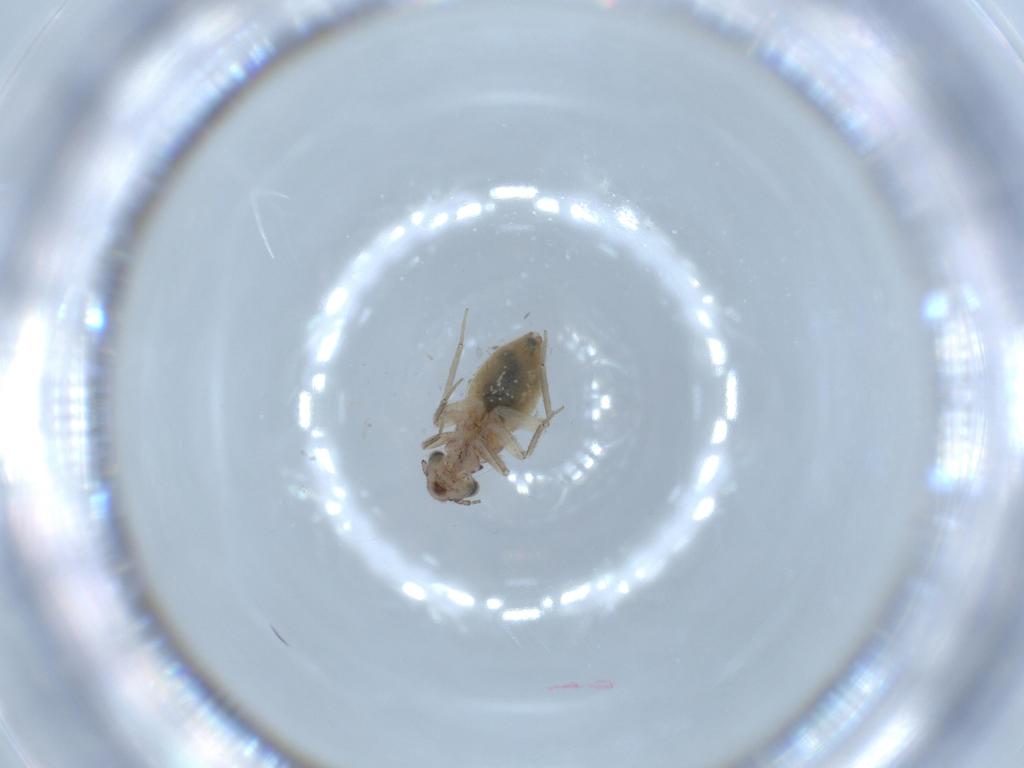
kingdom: Animalia
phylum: Arthropoda
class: Insecta
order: Psocodea
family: Lepidopsocidae
